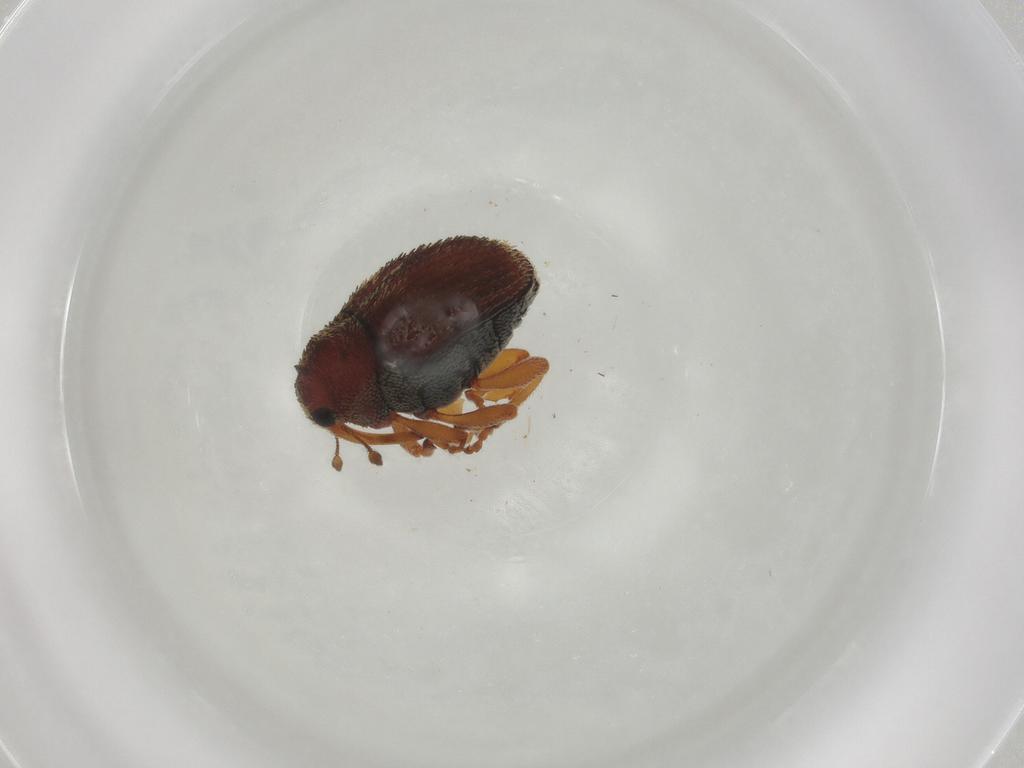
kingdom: Animalia
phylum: Arthropoda
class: Insecta
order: Coleoptera
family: Curculionidae
